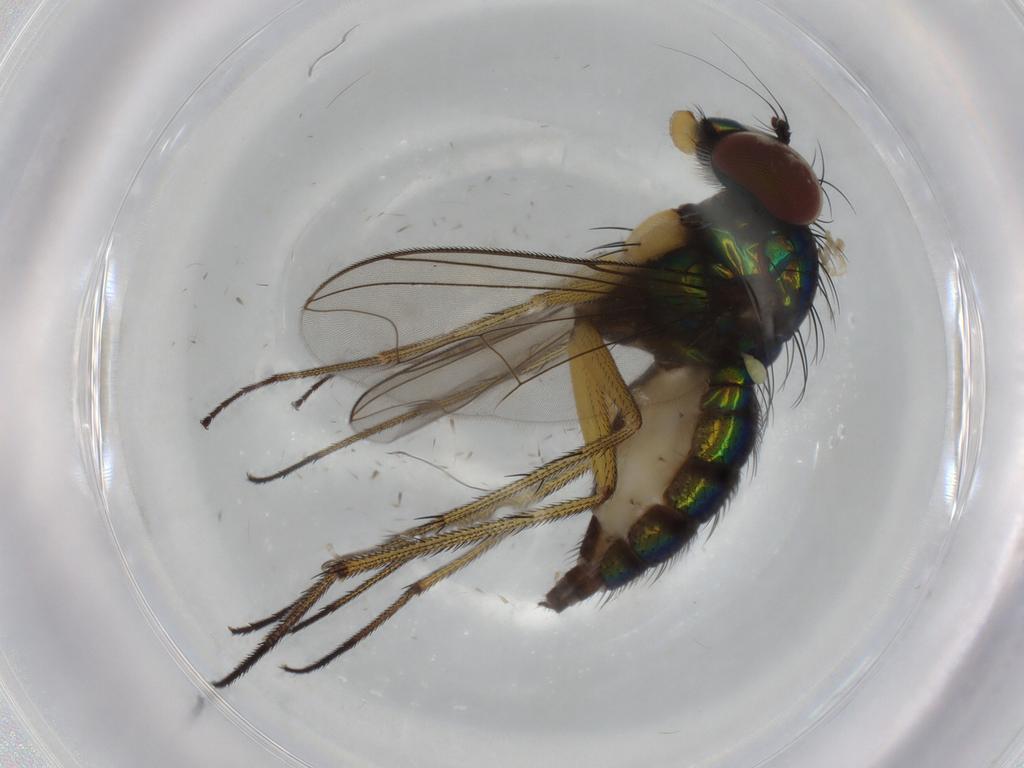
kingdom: Animalia
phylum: Arthropoda
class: Insecta
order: Diptera
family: Dolichopodidae
